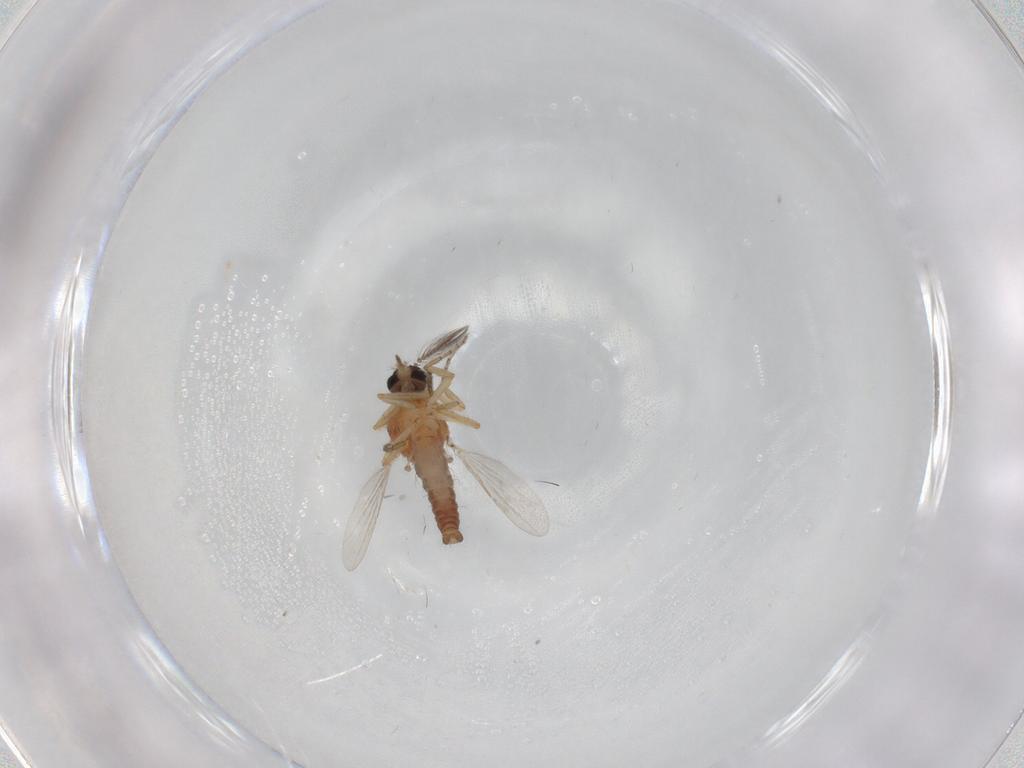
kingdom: Animalia
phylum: Arthropoda
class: Insecta
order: Diptera
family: Ceratopogonidae
